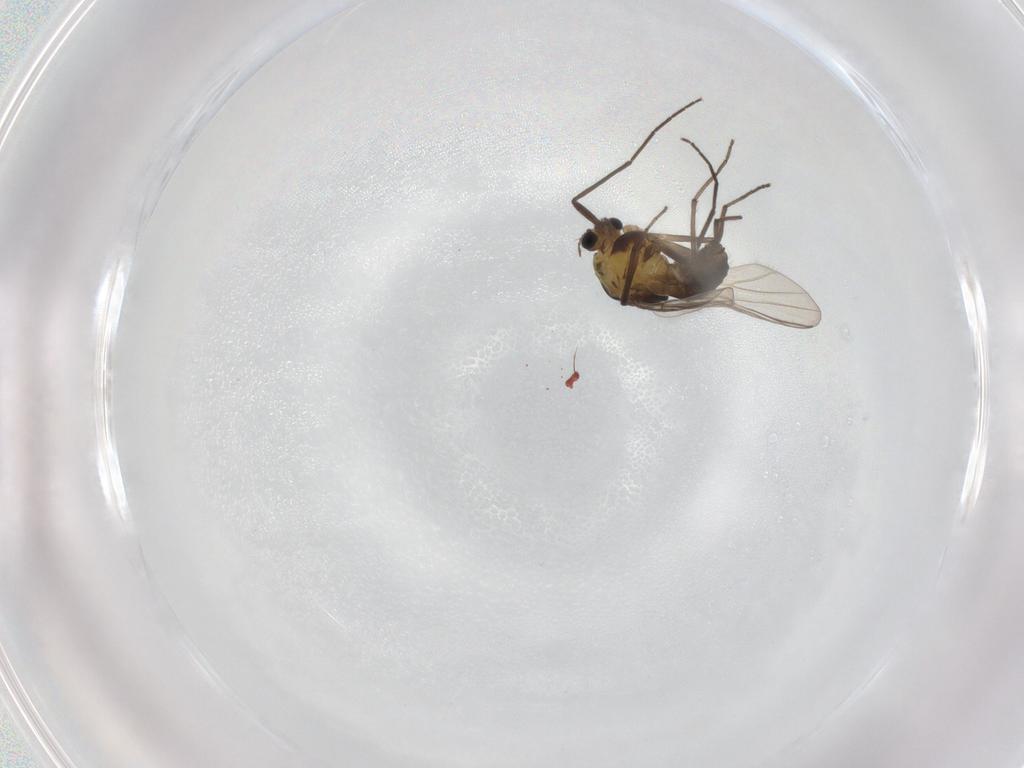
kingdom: Animalia
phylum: Arthropoda
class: Insecta
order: Diptera
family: Chironomidae
